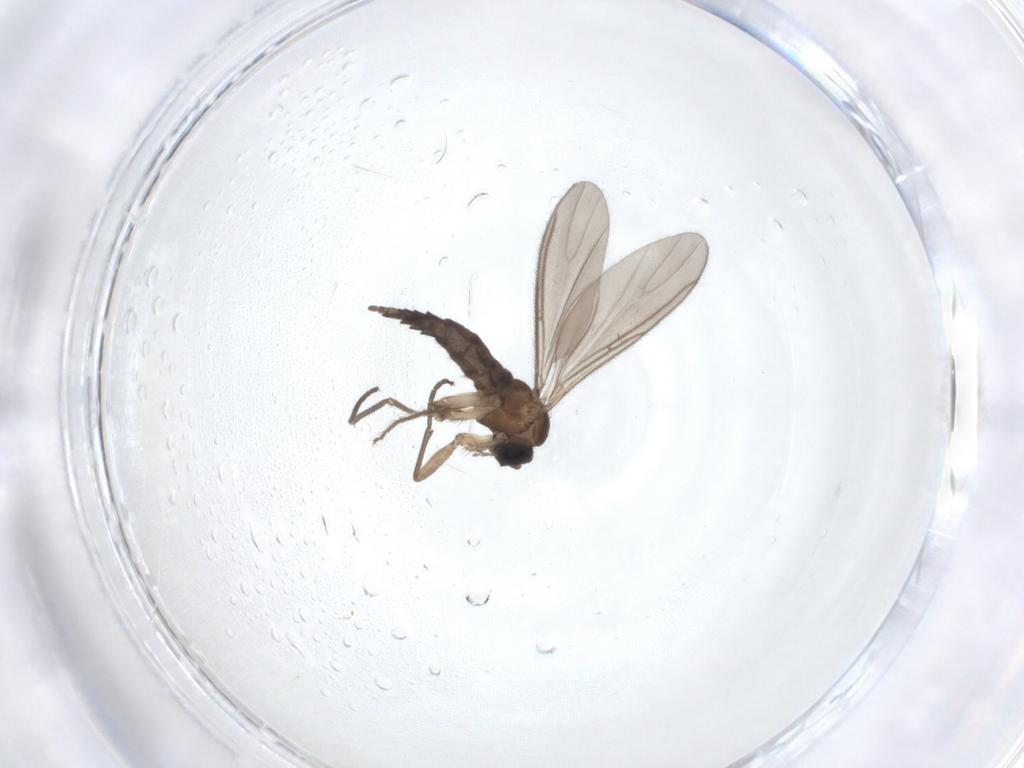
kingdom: Animalia
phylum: Arthropoda
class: Insecta
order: Diptera
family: Sciaridae
